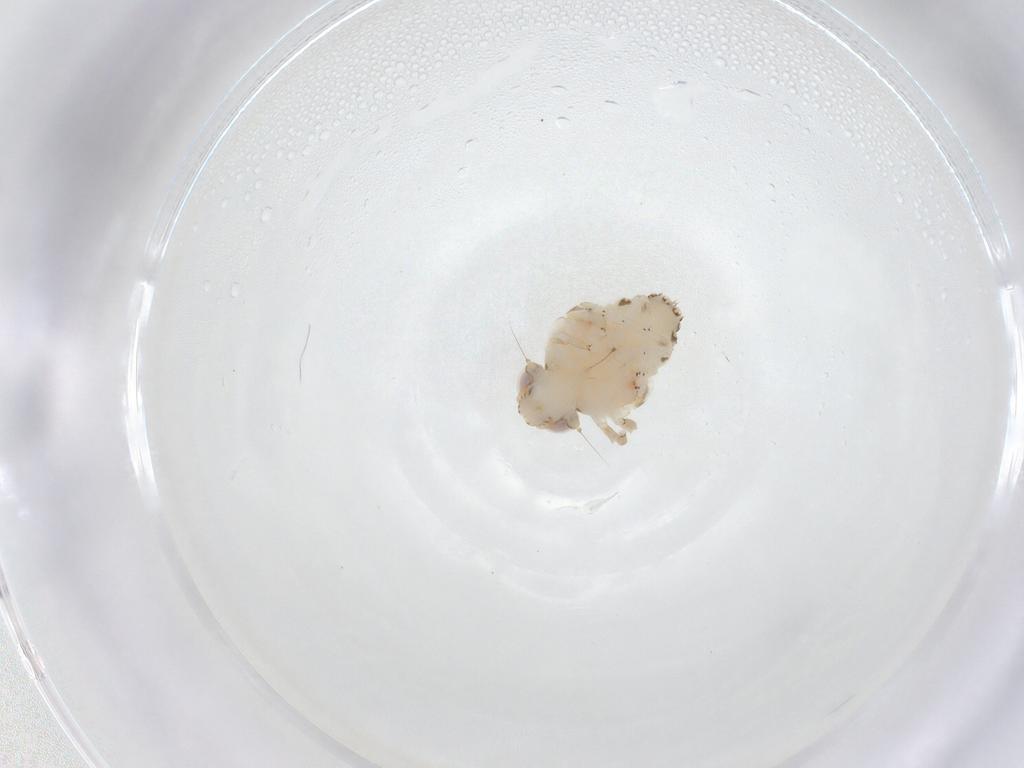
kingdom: Animalia
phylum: Arthropoda
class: Insecta
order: Hemiptera
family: Nogodinidae
